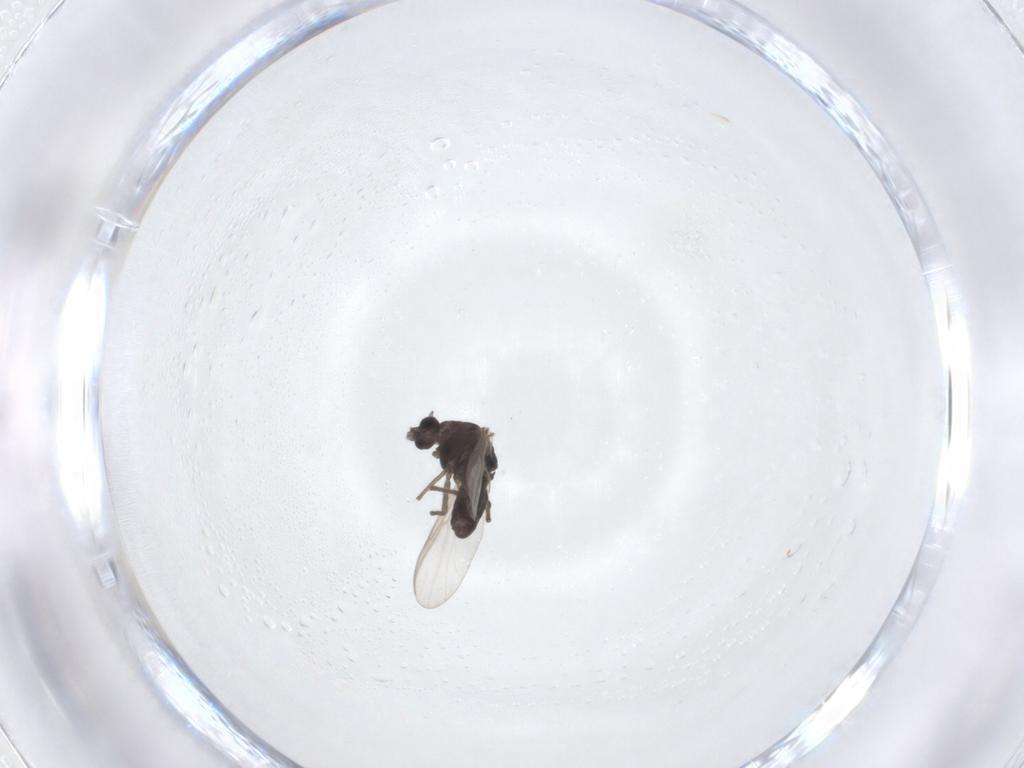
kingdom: Animalia
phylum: Arthropoda
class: Insecta
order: Diptera
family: Chironomidae
